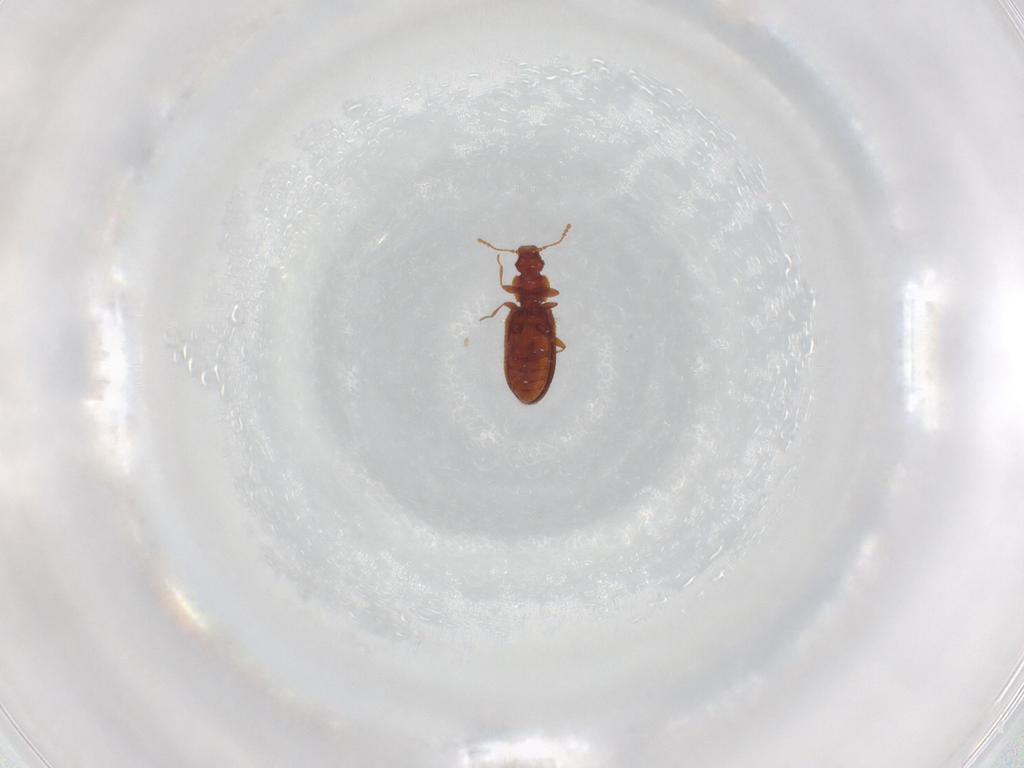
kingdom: Animalia
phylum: Arthropoda
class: Insecta
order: Coleoptera
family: Latridiidae
